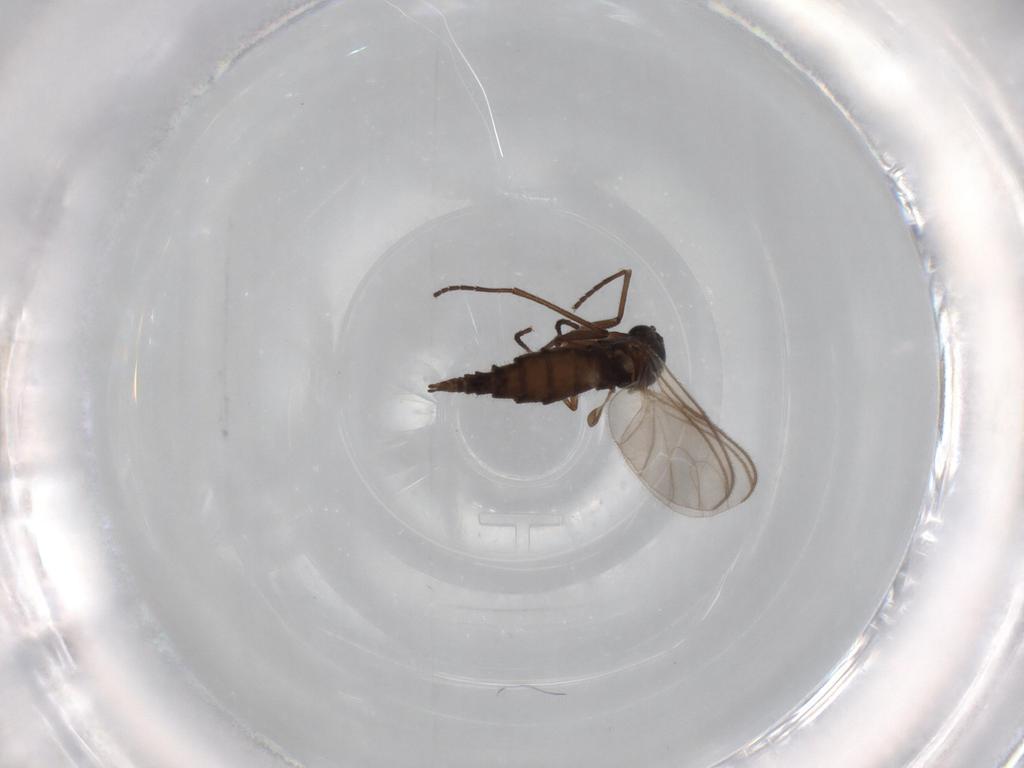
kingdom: Animalia
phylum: Arthropoda
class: Insecta
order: Diptera
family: Sciaridae
